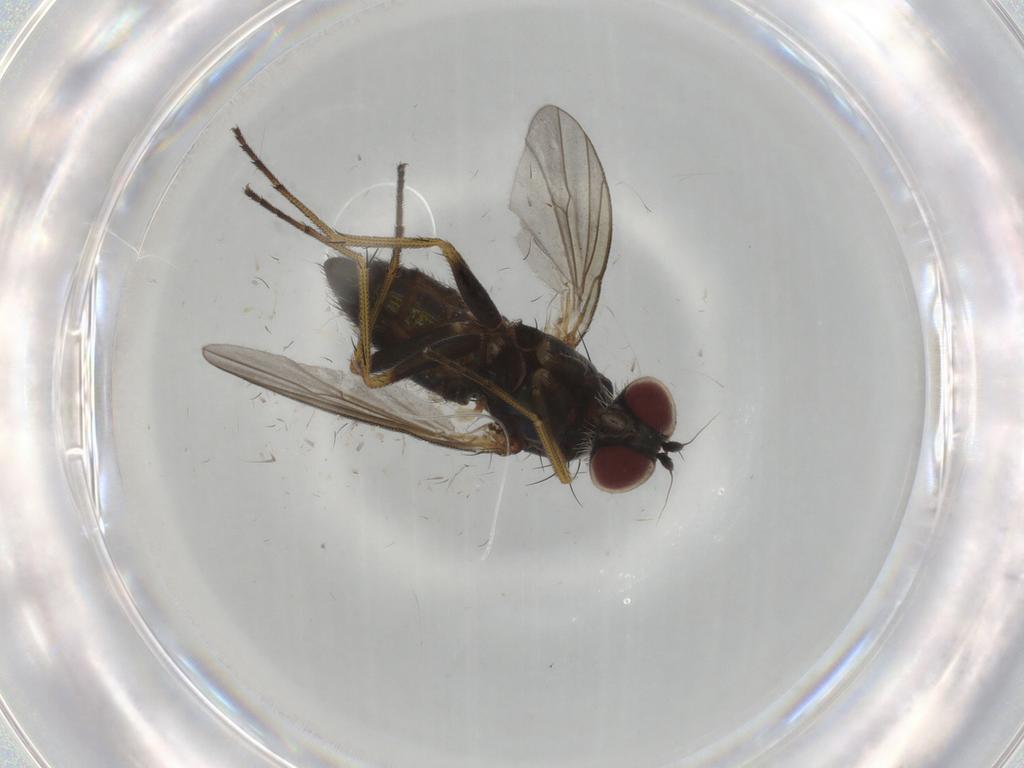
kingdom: Animalia
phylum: Arthropoda
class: Insecta
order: Diptera
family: Dolichopodidae
